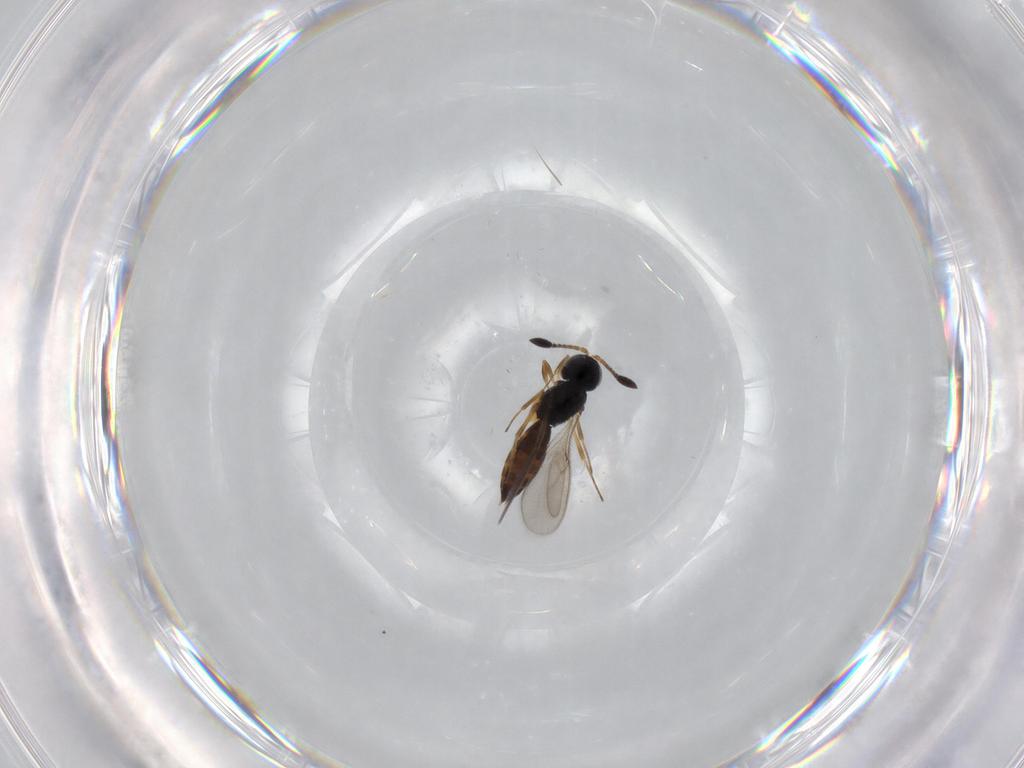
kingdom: Animalia
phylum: Arthropoda
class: Insecta
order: Hymenoptera
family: Scelionidae
